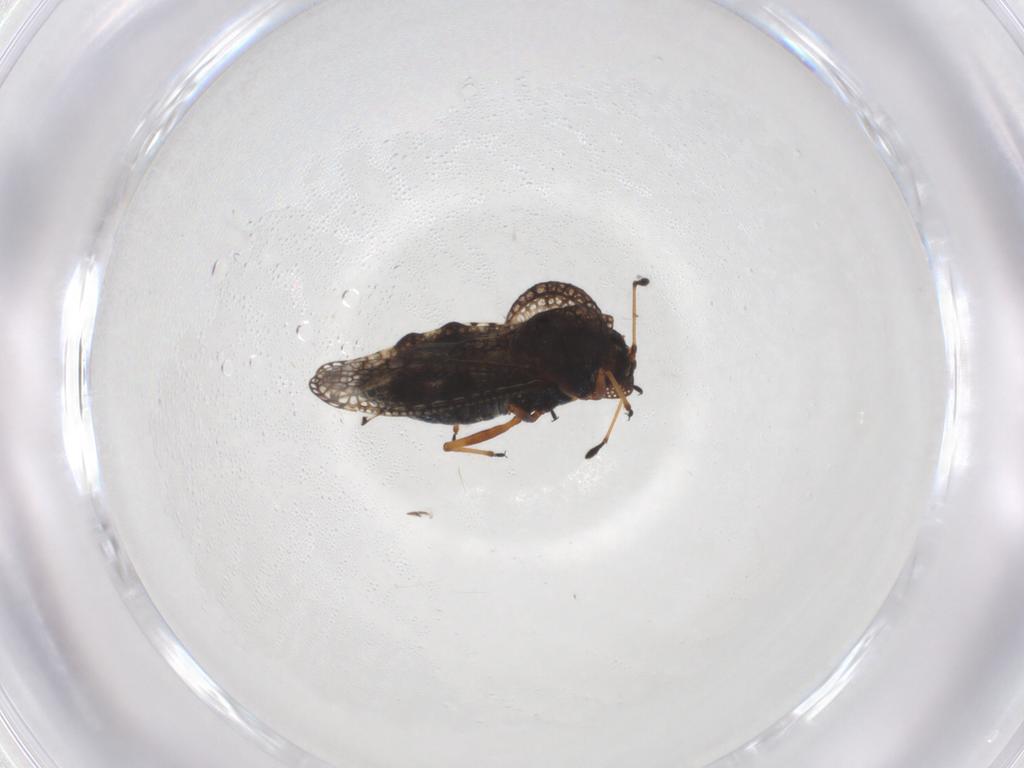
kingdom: Animalia
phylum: Arthropoda
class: Insecta
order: Hemiptera
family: Tingidae
